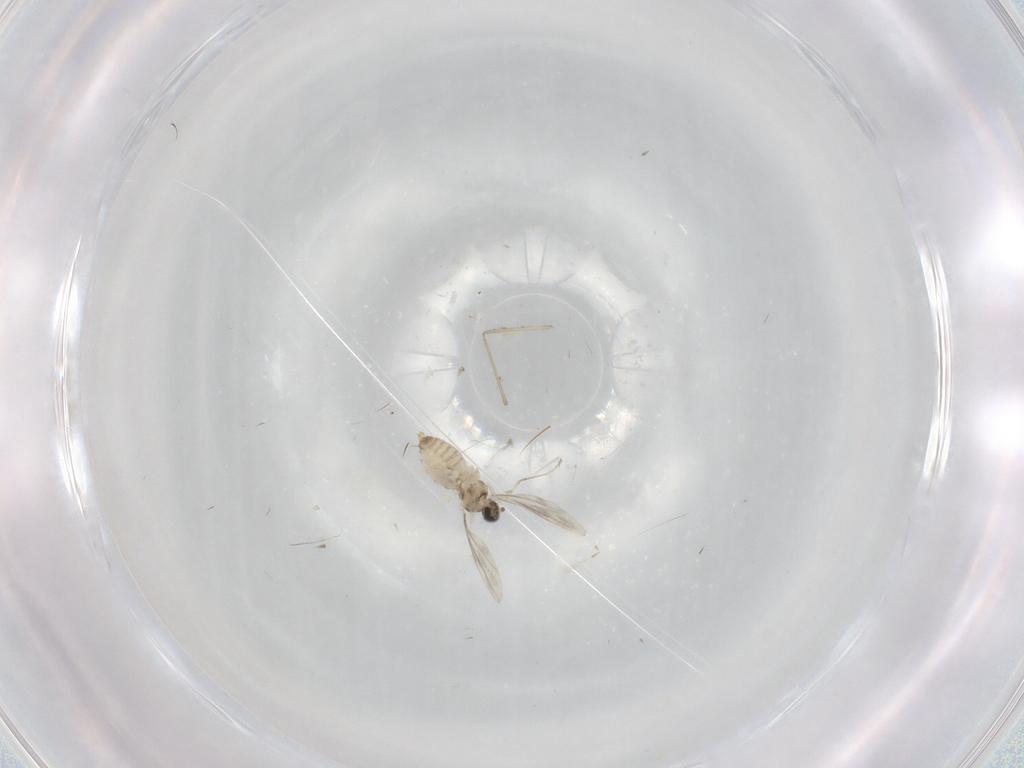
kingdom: Animalia
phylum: Arthropoda
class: Insecta
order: Diptera
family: Cecidomyiidae
